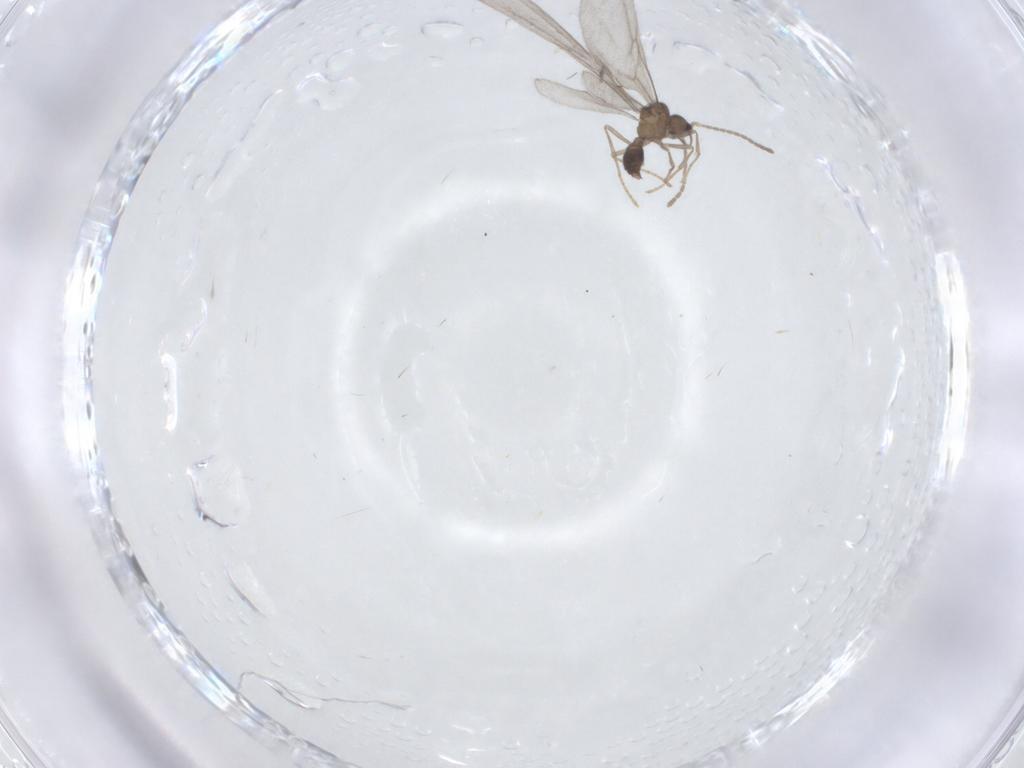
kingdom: Animalia
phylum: Arthropoda
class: Insecta
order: Hymenoptera
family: Formicidae
